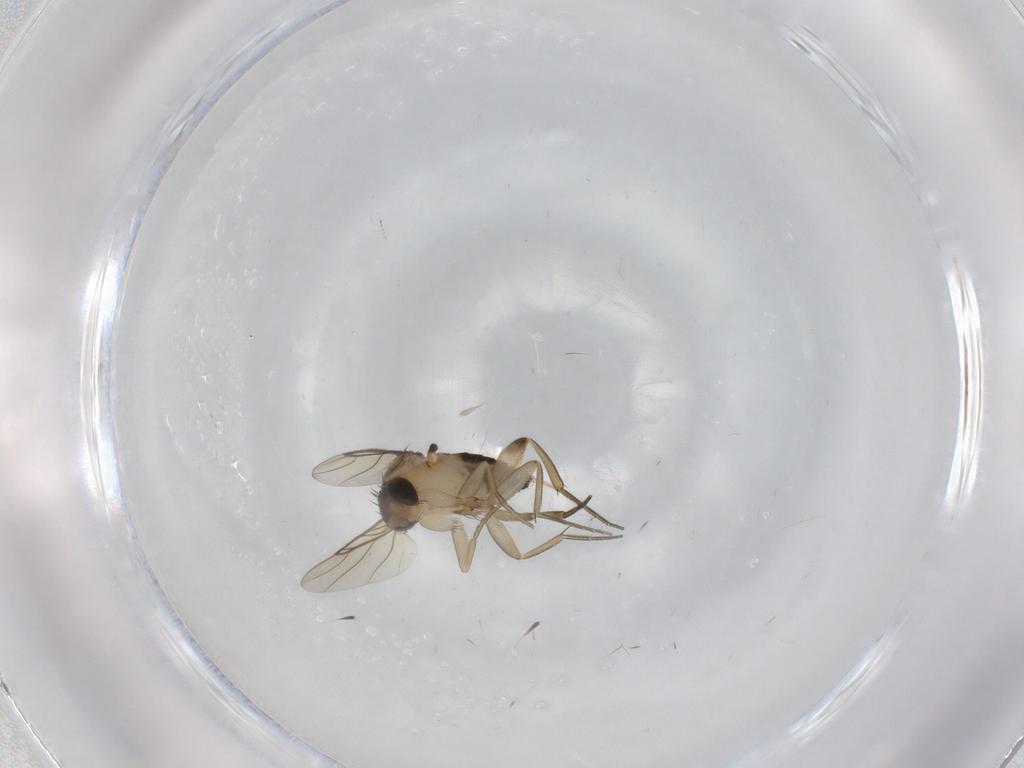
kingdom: Animalia
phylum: Arthropoda
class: Insecta
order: Diptera
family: Phoridae
